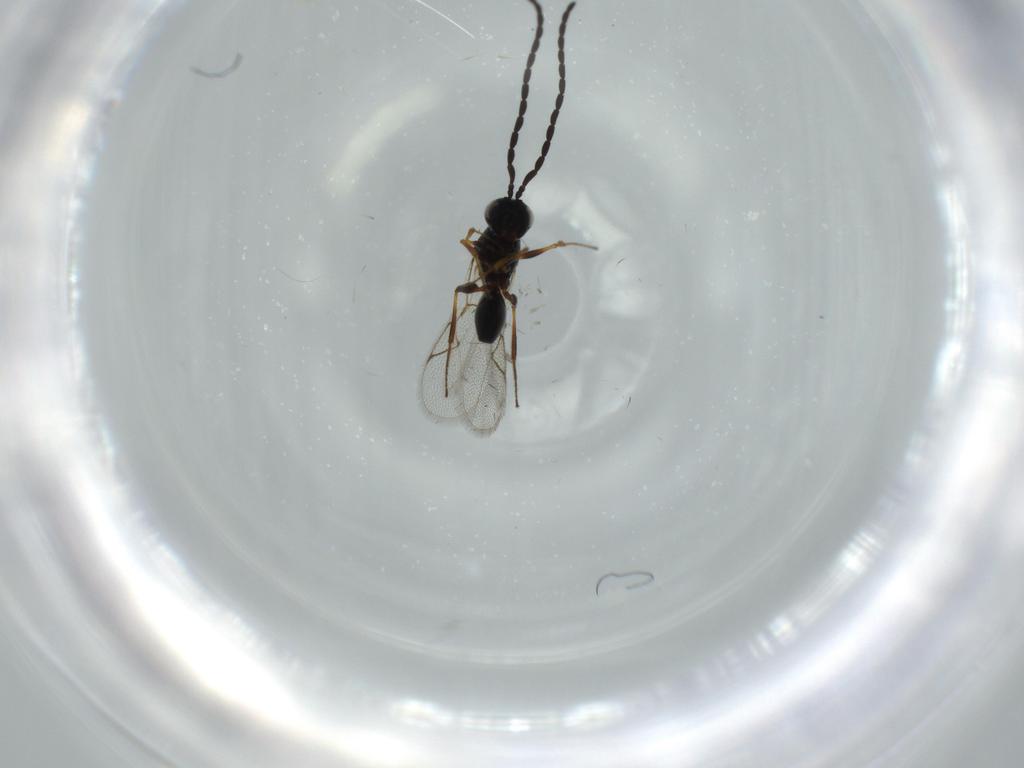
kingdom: Animalia
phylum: Arthropoda
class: Insecta
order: Hymenoptera
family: Figitidae
